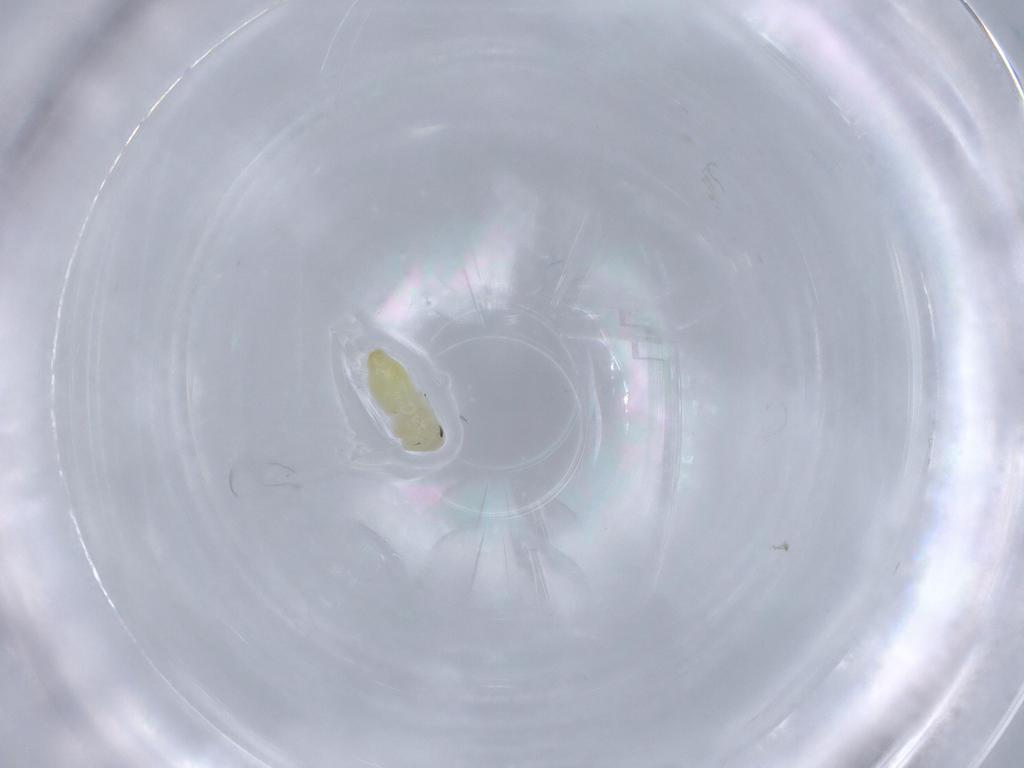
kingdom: Animalia
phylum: Arthropoda
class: Insecta
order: Hemiptera
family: Aleyrodidae
